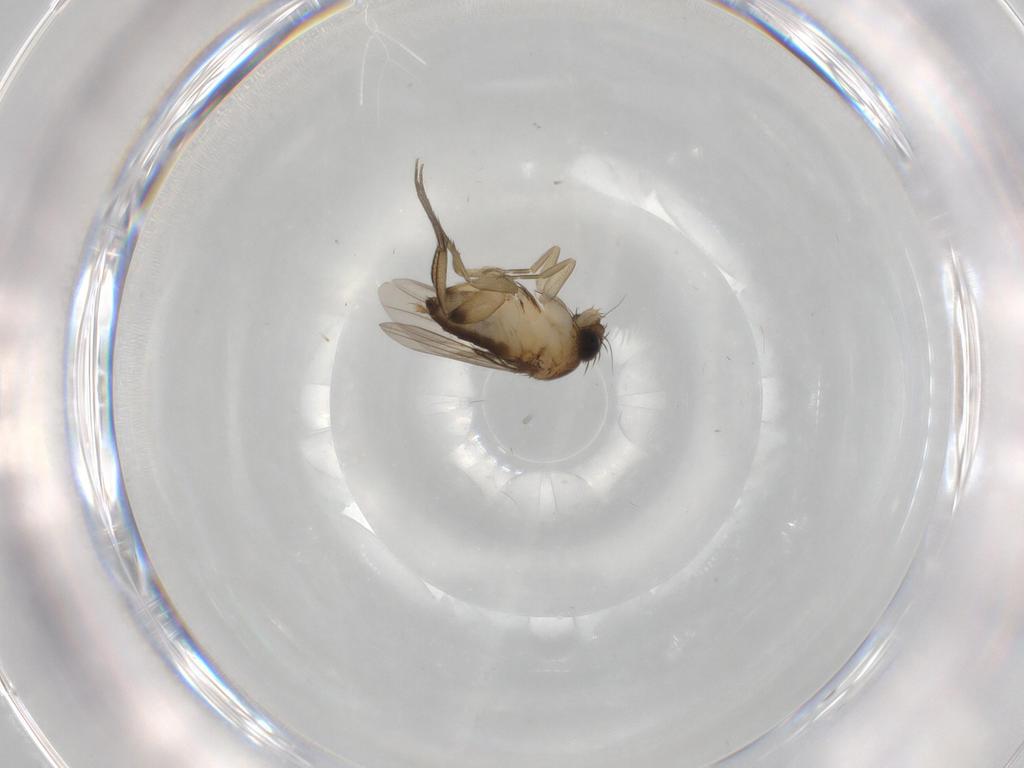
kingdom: Animalia
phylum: Arthropoda
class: Insecta
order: Diptera
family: Phoridae
